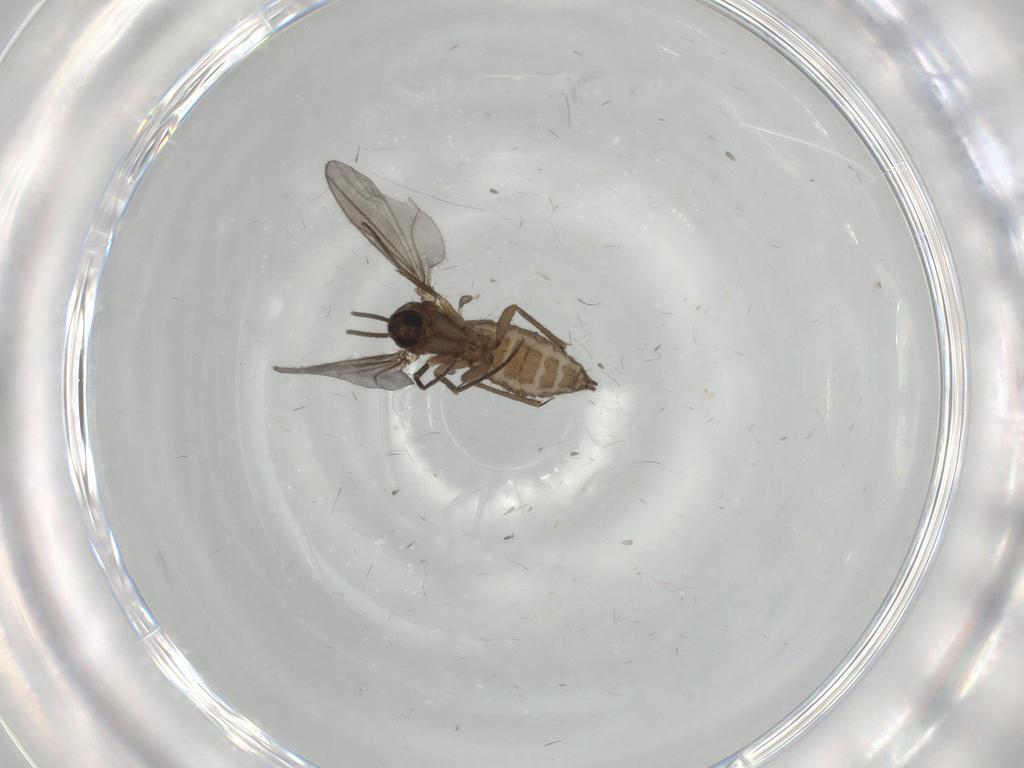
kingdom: Animalia
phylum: Arthropoda
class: Insecta
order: Diptera
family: Sciaridae
